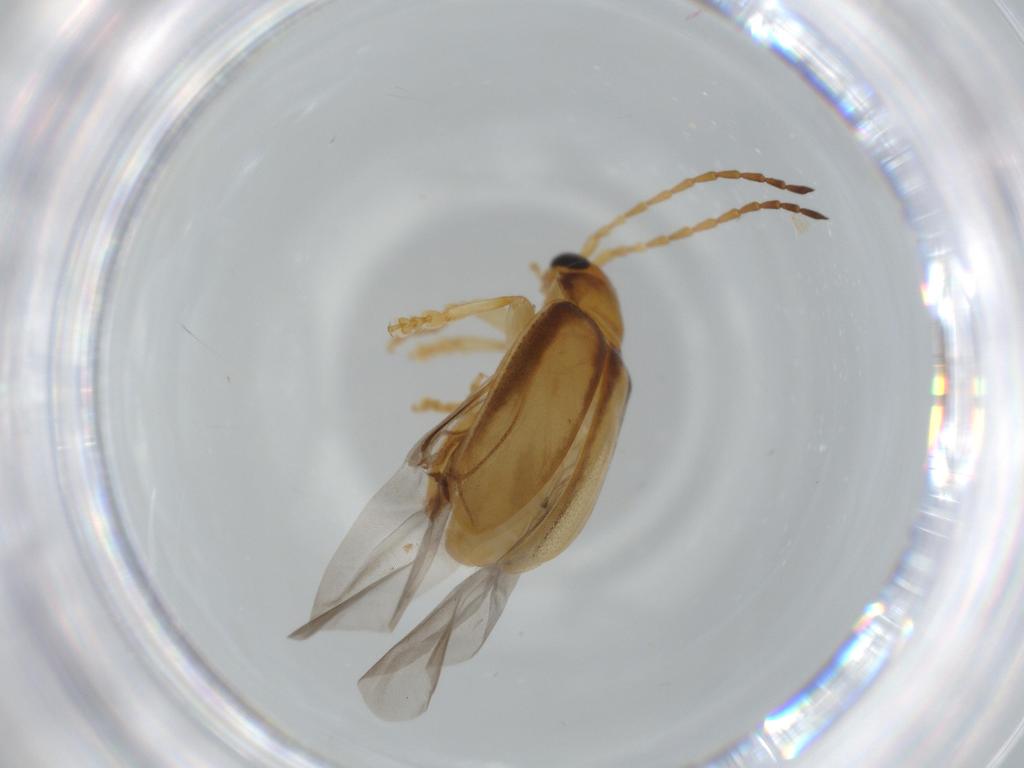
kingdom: Animalia
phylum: Arthropoda
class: Insecta
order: Coleoptera
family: Chrysomelidae
